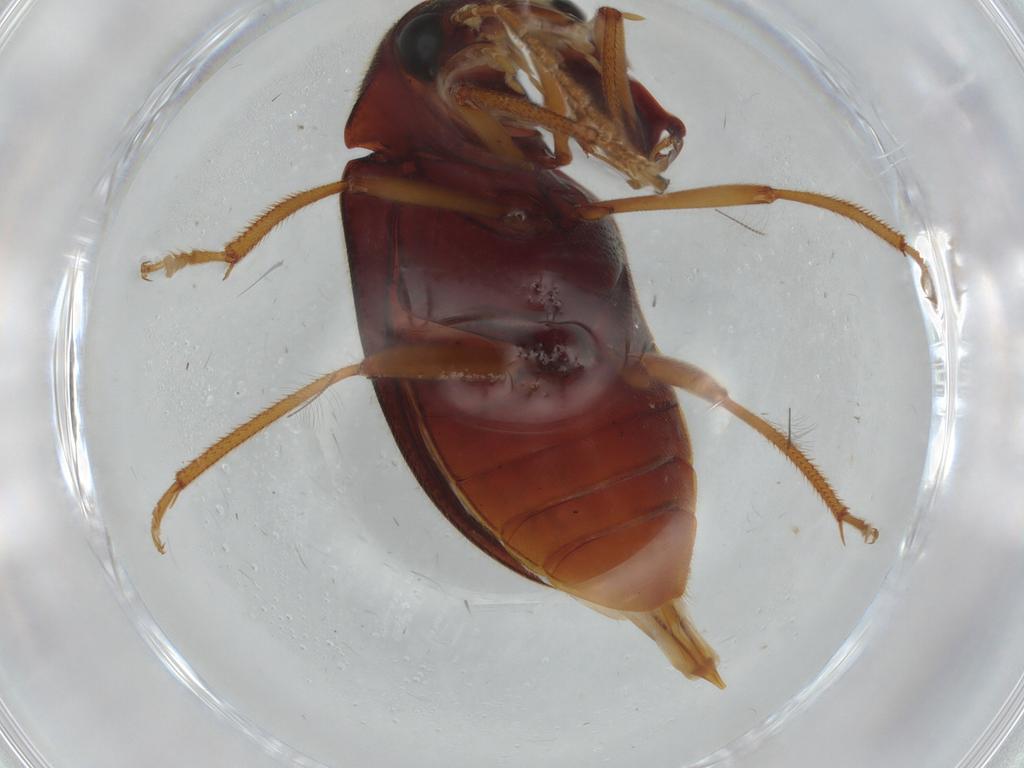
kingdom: Animalia
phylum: Arthropoda
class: Insecta
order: Coleoptera
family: Ptilodactylidae
